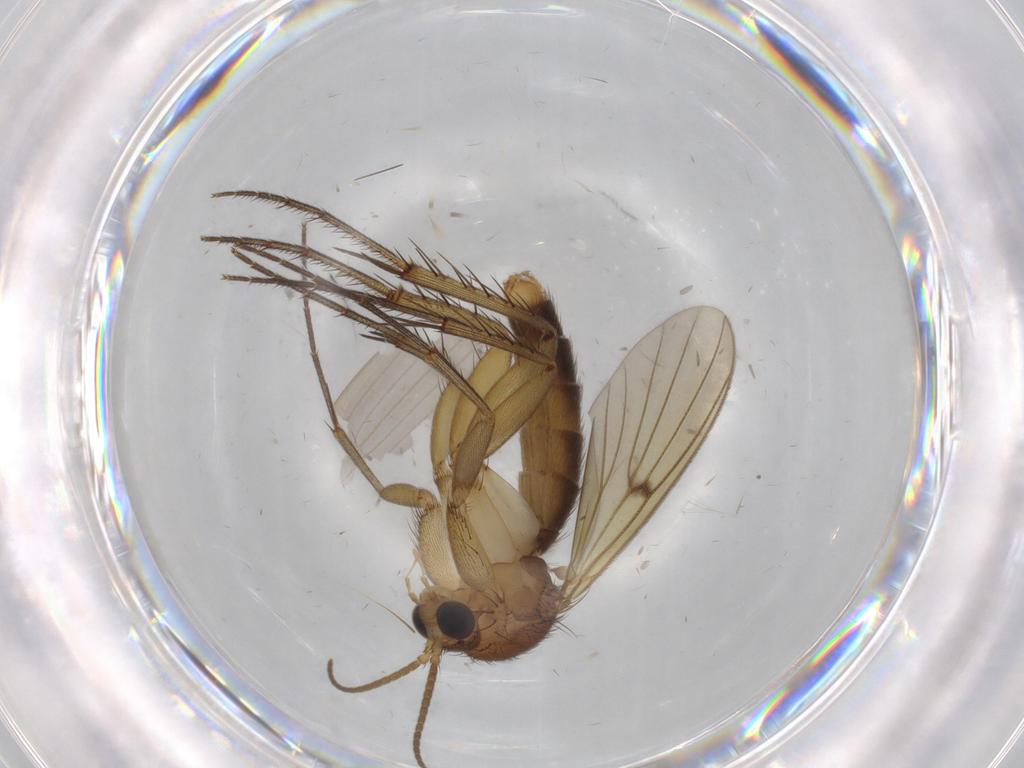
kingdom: Animalia
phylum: Arthropoda
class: Insecta
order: Diptera
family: Mycetophilidae
